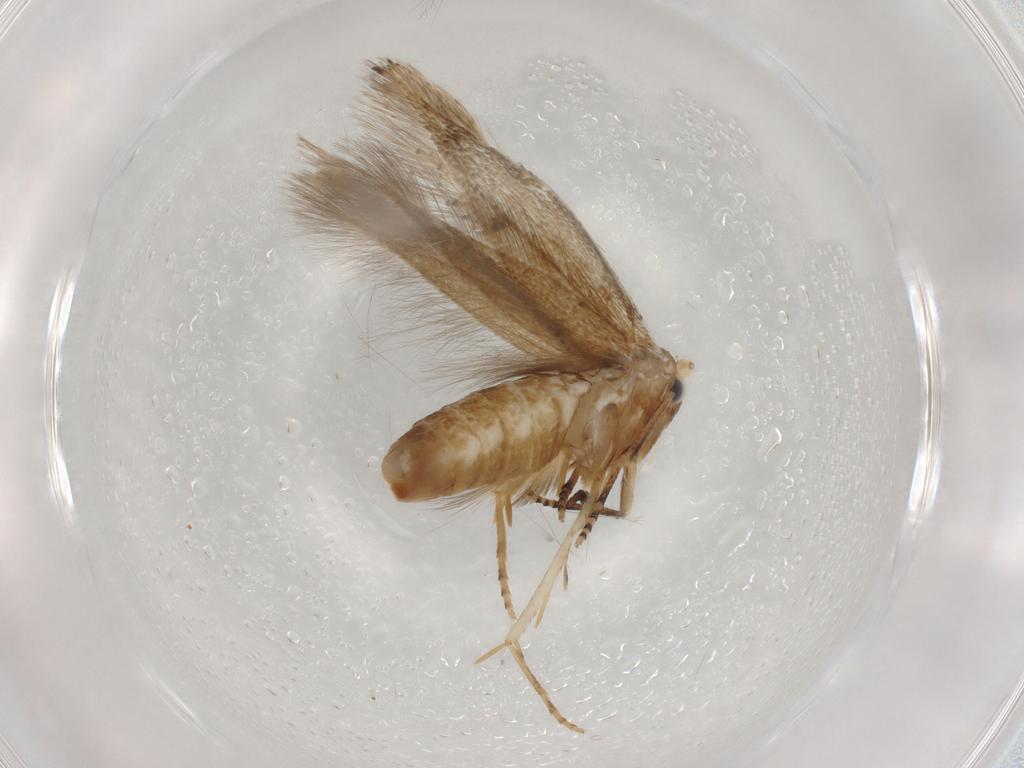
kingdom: Animalia
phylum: Arthropoda
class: Insecta
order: Lepidoptera
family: Bucculatricidae
